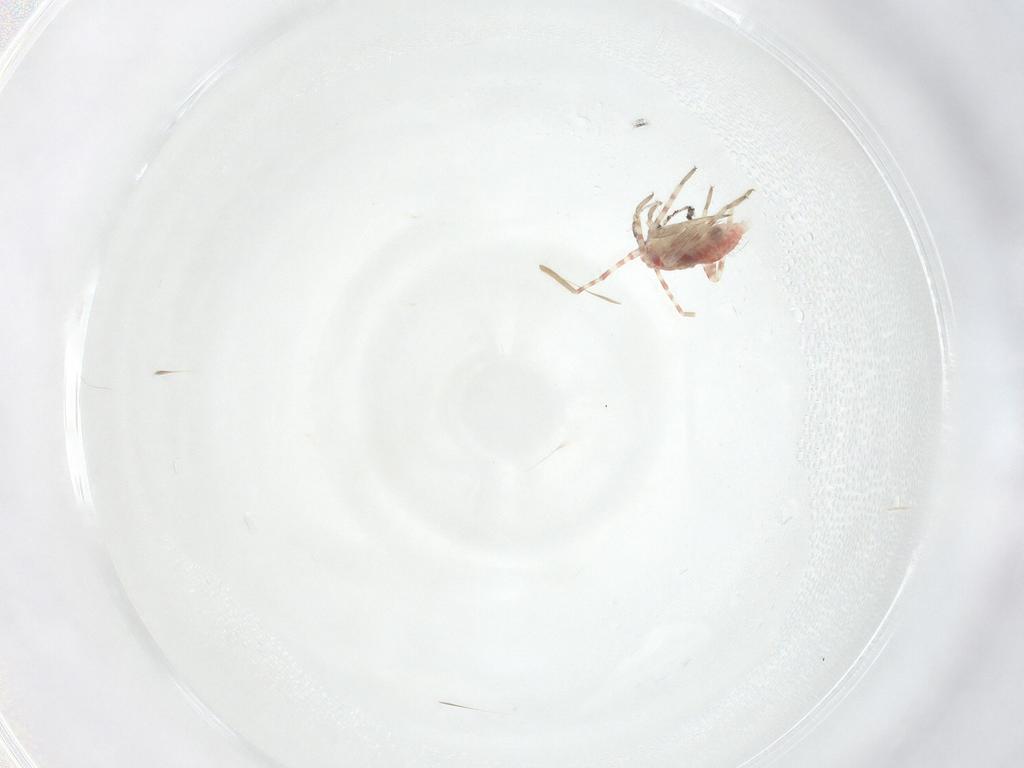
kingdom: Animalia
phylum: Arthropoda
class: Insecta
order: Hemiptera
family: Miridae
